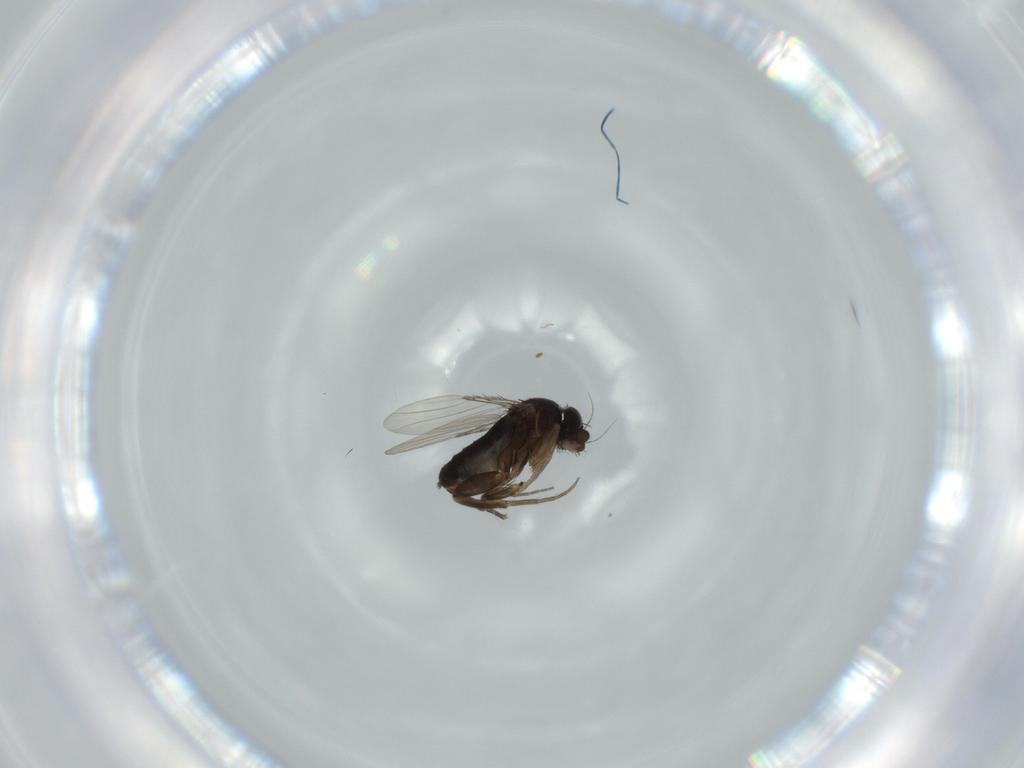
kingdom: Animalia
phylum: Arthropoda
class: Insecta
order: Diptera
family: Phoridae
